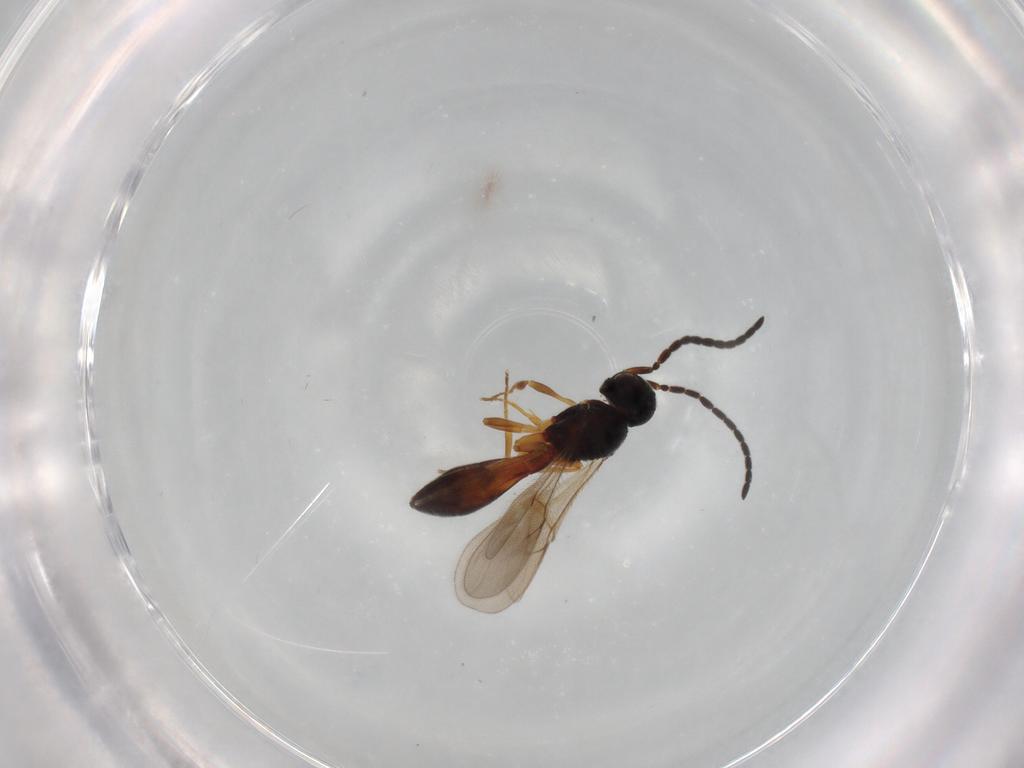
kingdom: Animalia
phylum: Arthropoda
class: Insecta
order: Hymenoptera
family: Scelionidae
